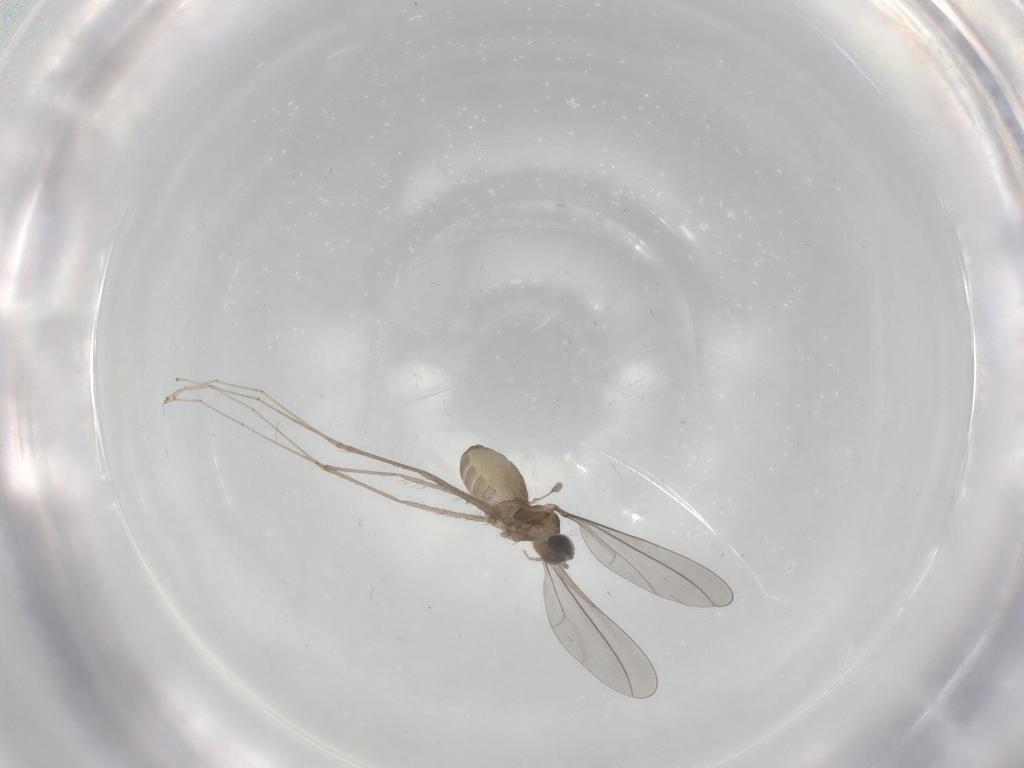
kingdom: Animalia
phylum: Arthropoda
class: Insecta
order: Diptera
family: Cecidomyiidae
